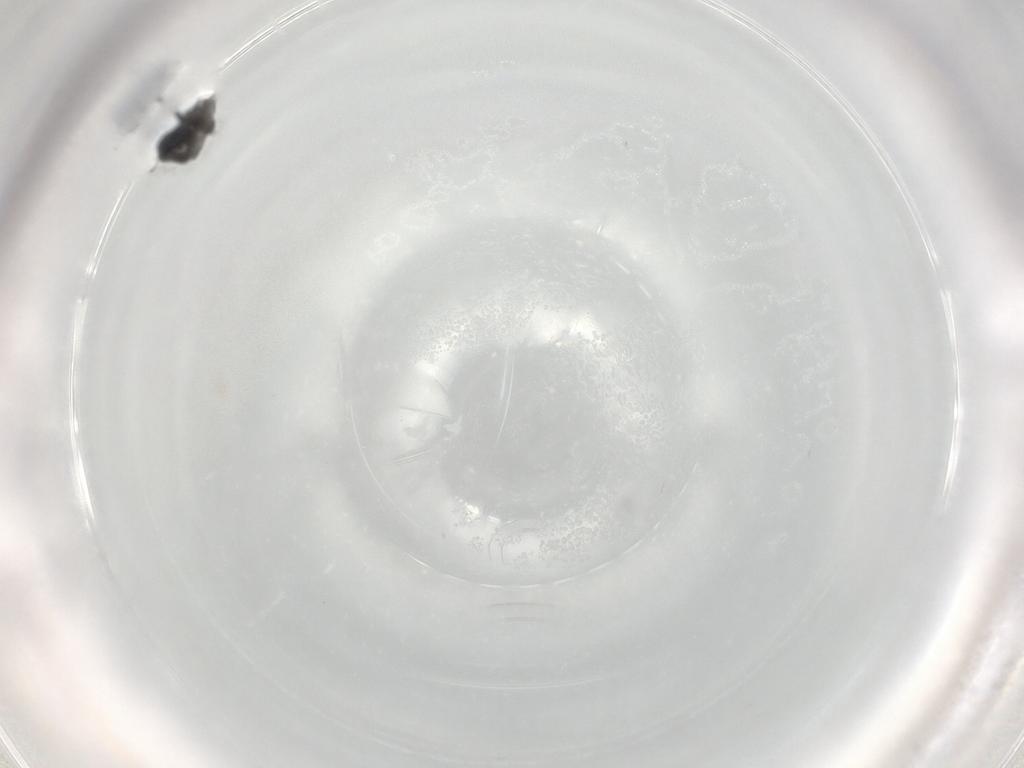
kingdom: Animalia
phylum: Arthropoda
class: Insecta
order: Hymenoptera
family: Scelionidae
